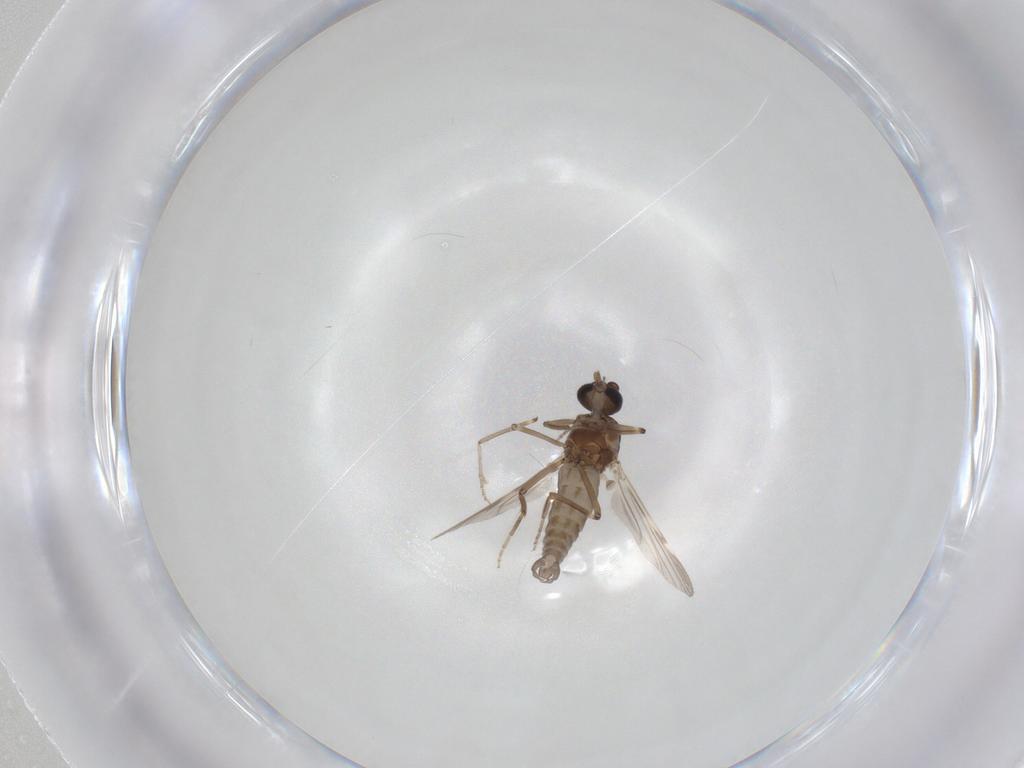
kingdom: Animalia
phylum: Arthropoda
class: Insecta
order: Diptera
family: Ceratopogonidae
